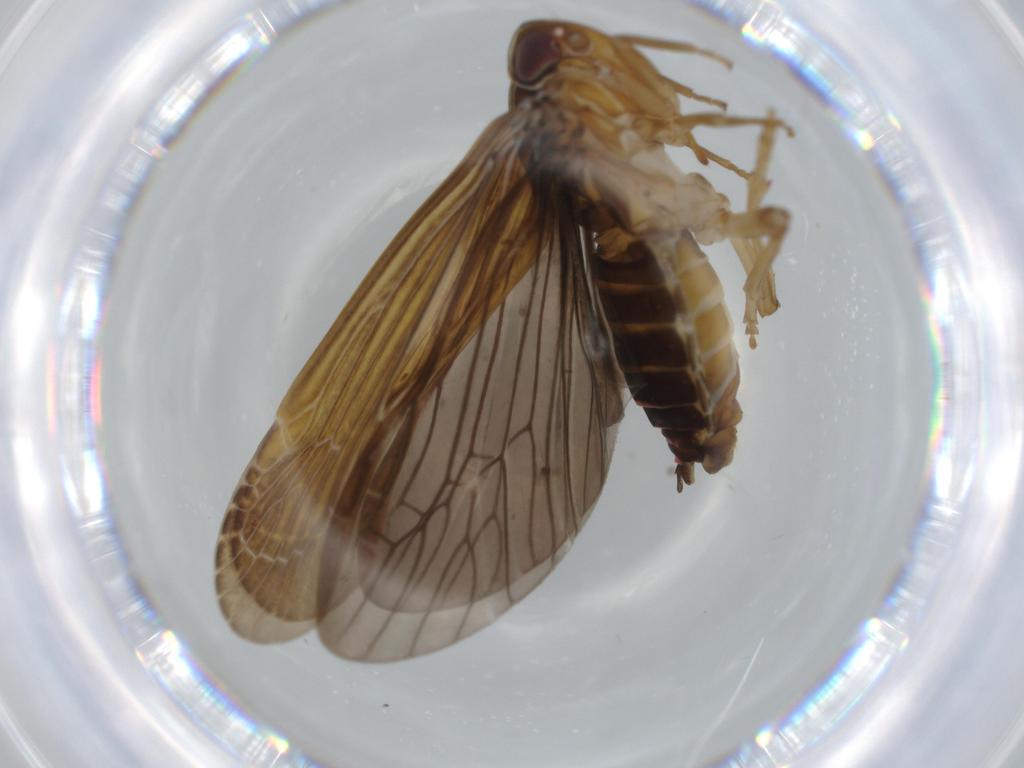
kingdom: Animalia
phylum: Arthropoda
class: Insecta
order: Hemiptera
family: Achilidae
